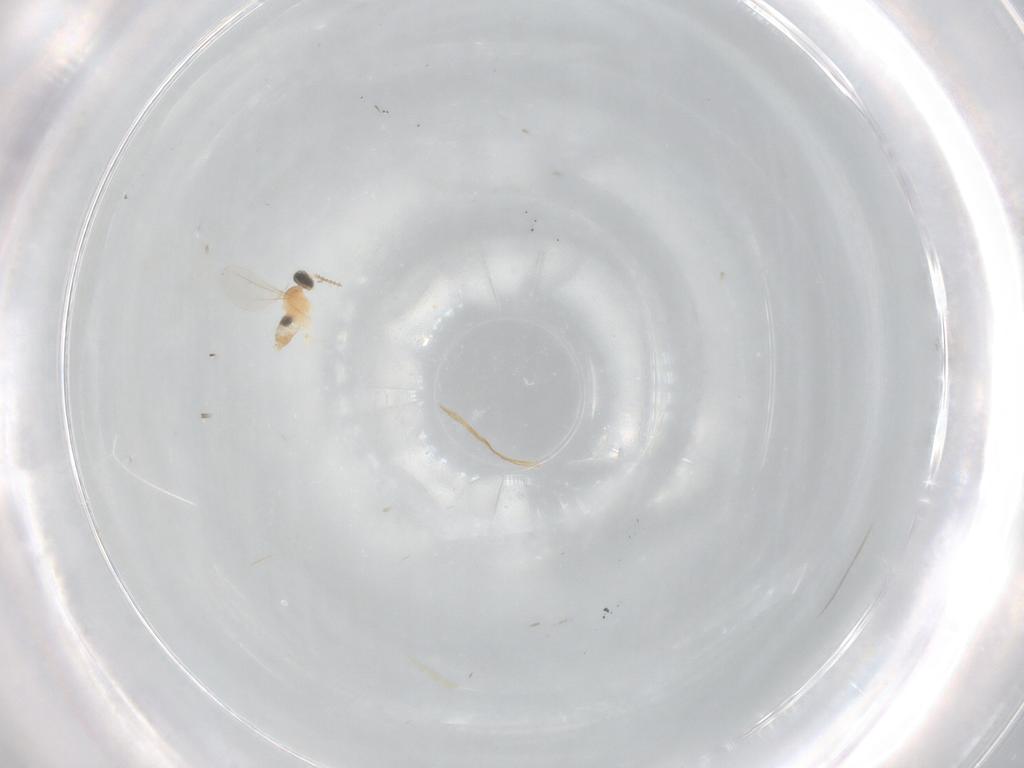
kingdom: Animalia
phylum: Arthropoda
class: Insecta
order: Diptera
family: Cecidomyiidae
